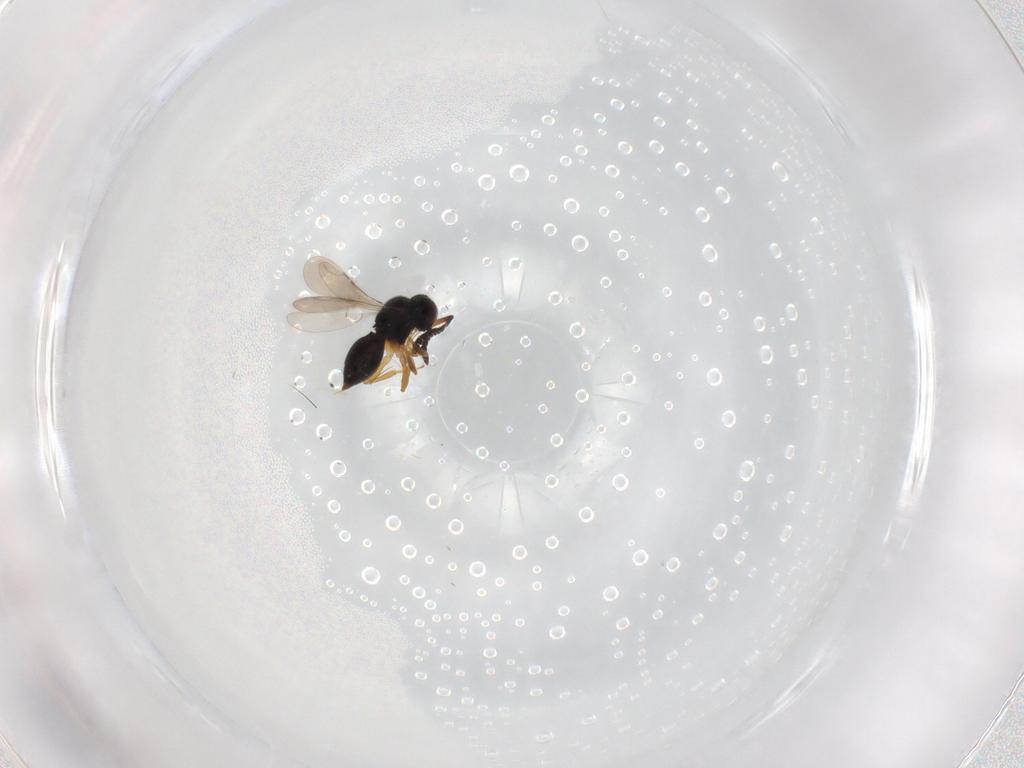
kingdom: Animalia
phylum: Arthropoda
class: Insecta
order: Hymenoptera
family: Ceraphronidae
